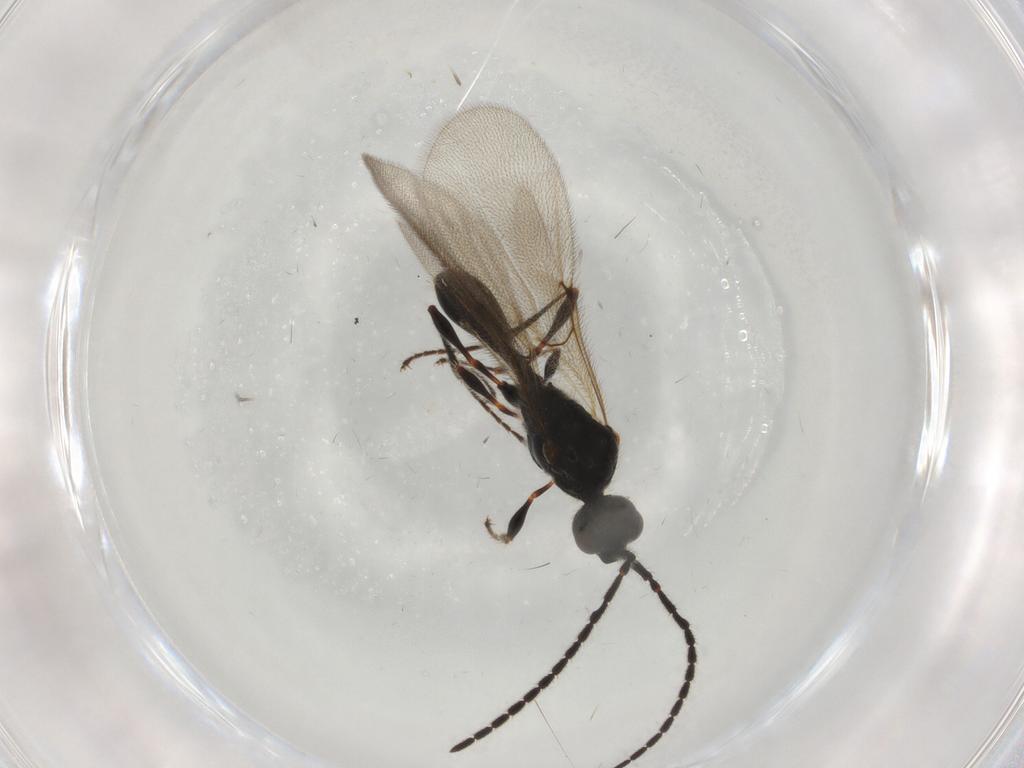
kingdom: Animalia
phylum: Arthropoda
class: Insecta
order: Hymenoptera
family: Diapriidae
